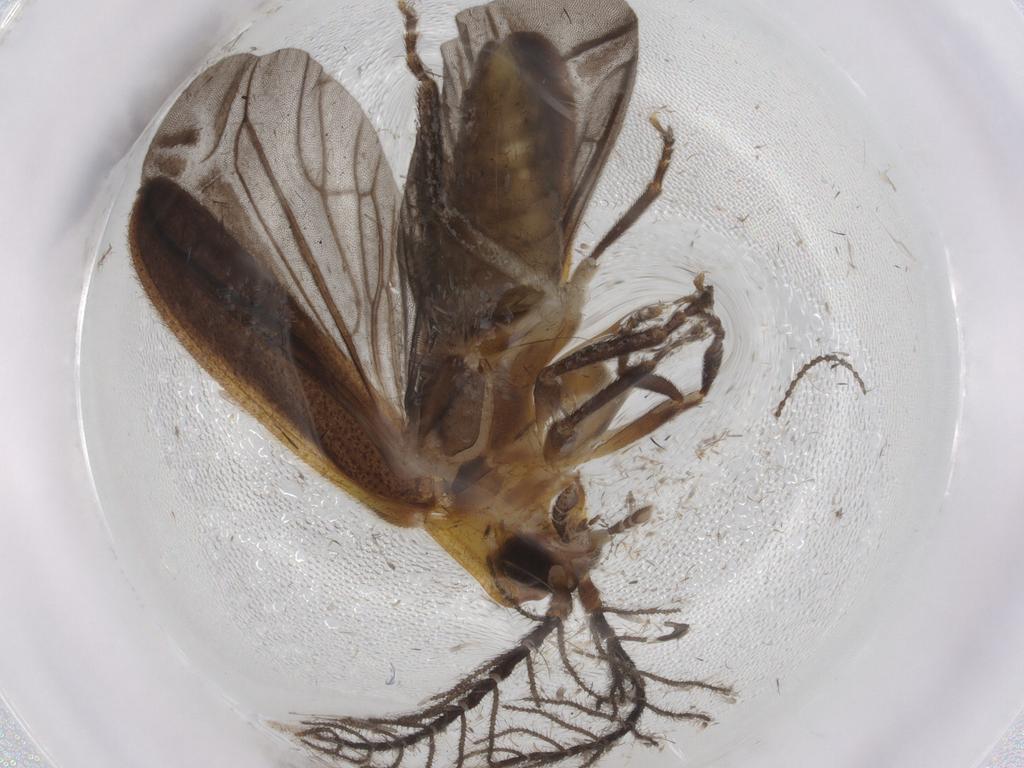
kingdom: Animalia
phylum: Arthropoda
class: Insecta
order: Coleoptera
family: Lampyridae
